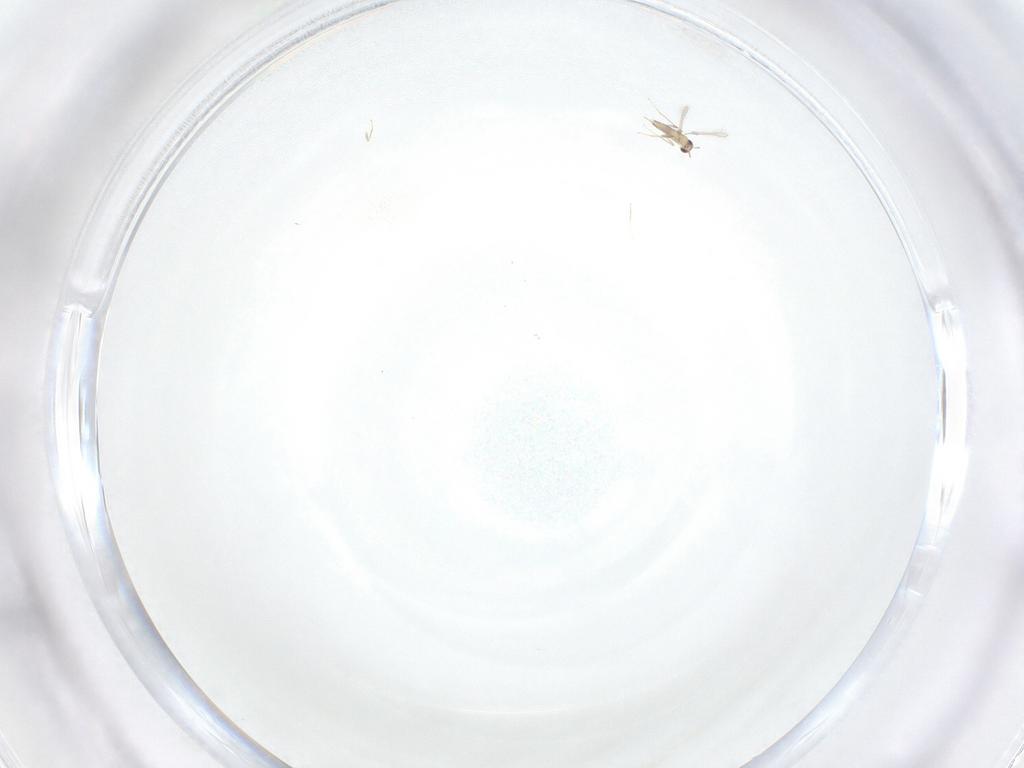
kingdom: Animalia
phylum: Arthropoda
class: Insecta
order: Hymenoptera
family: Mymaridae
